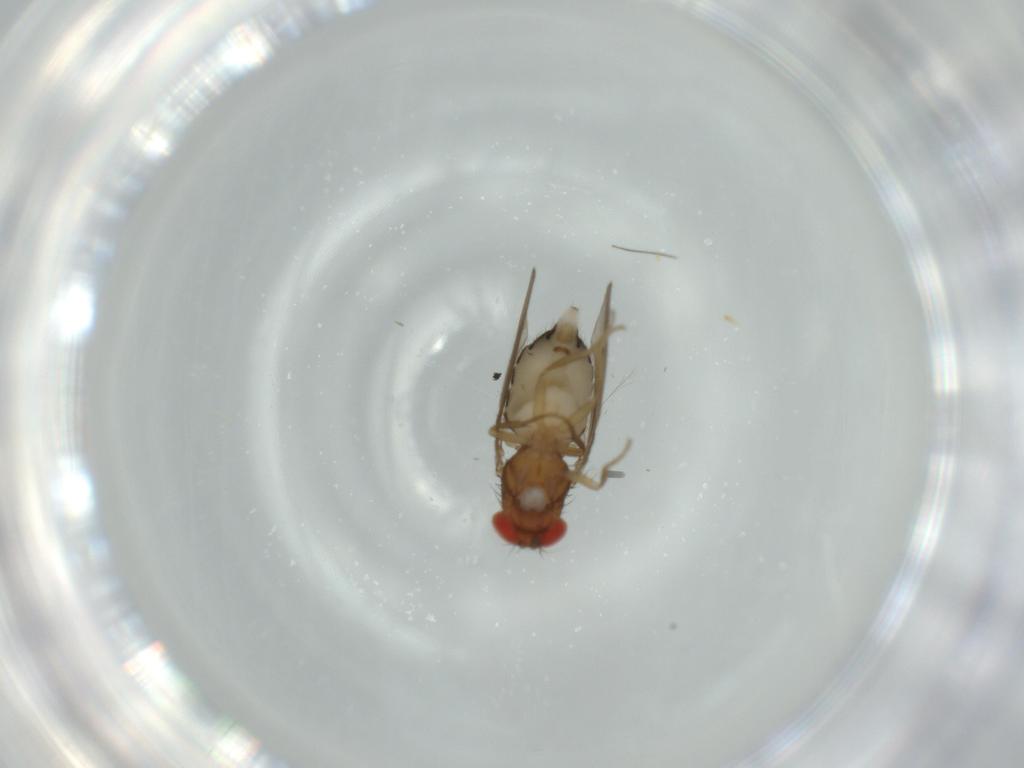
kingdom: Animalia
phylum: Arthropoda
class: Insecta
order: Diptera
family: Drosophilidae
